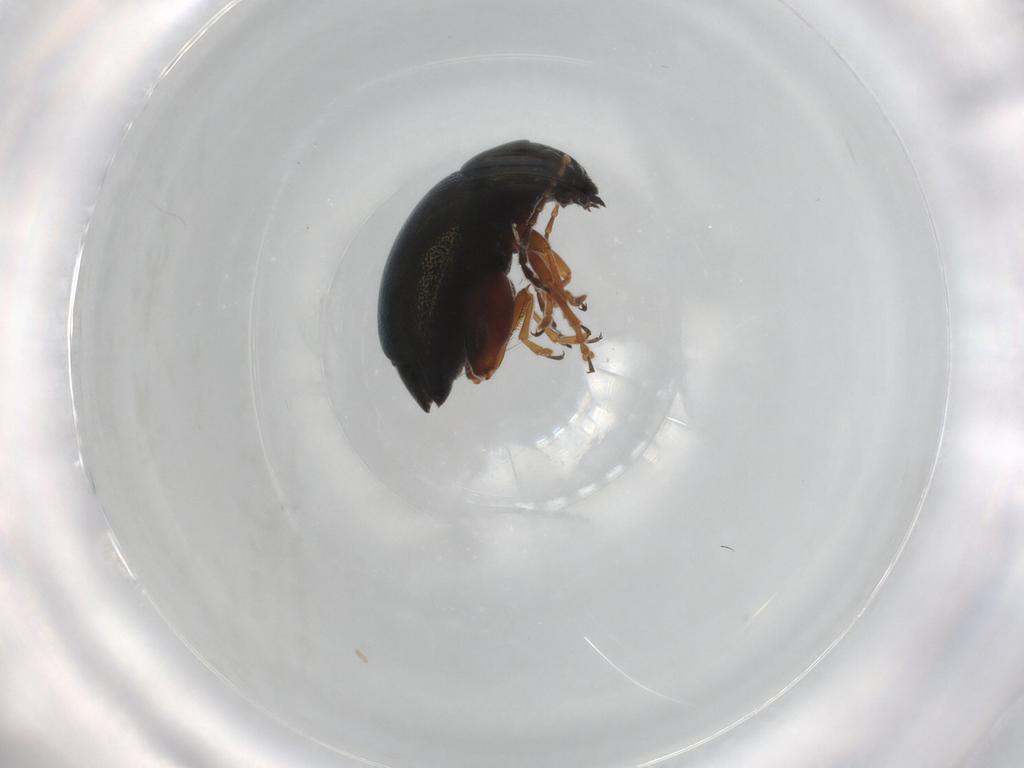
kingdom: Animalia
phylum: Arthropoda
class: Insecta
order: Coleoptera
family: Chrysomelidae
